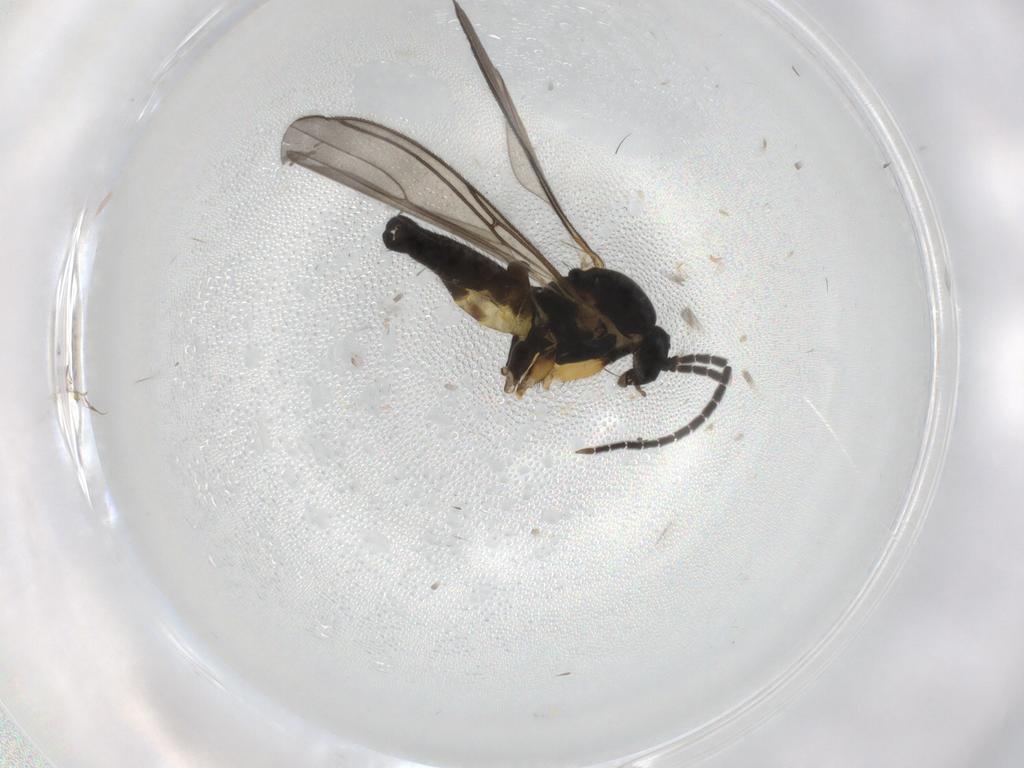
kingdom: Animalia
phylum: Arthropoda
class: Insecta
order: Diptera
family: Sciaridae
